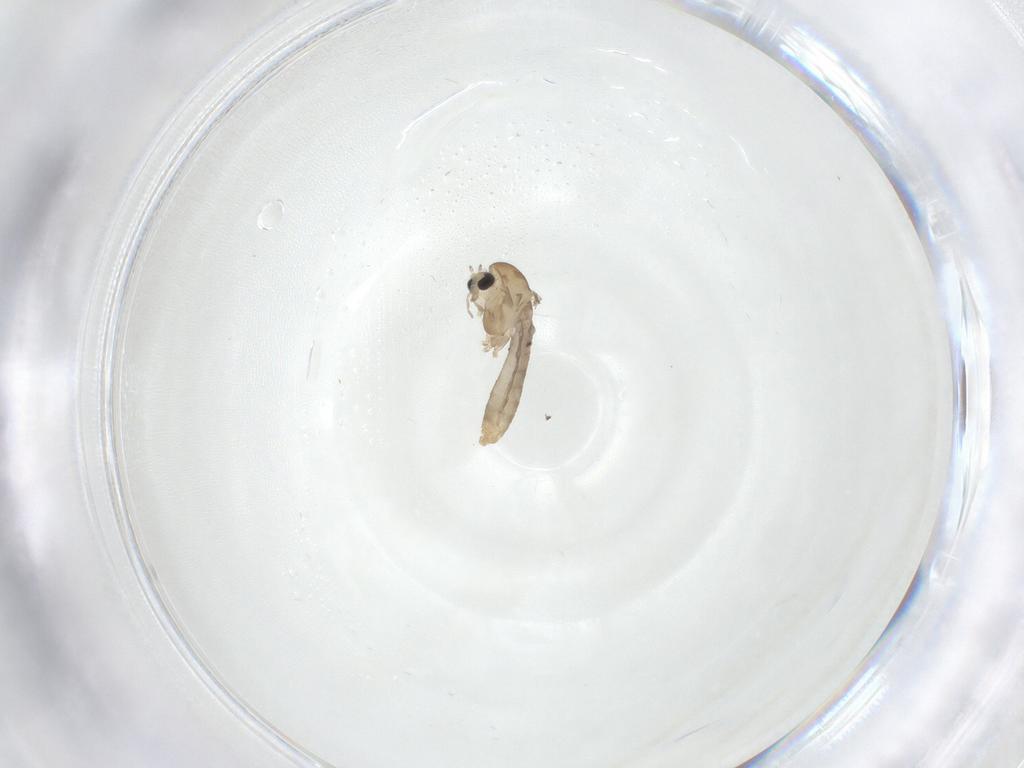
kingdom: Animalia
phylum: Arthropoda
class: Insecta
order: Diptera
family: Chironomidae
